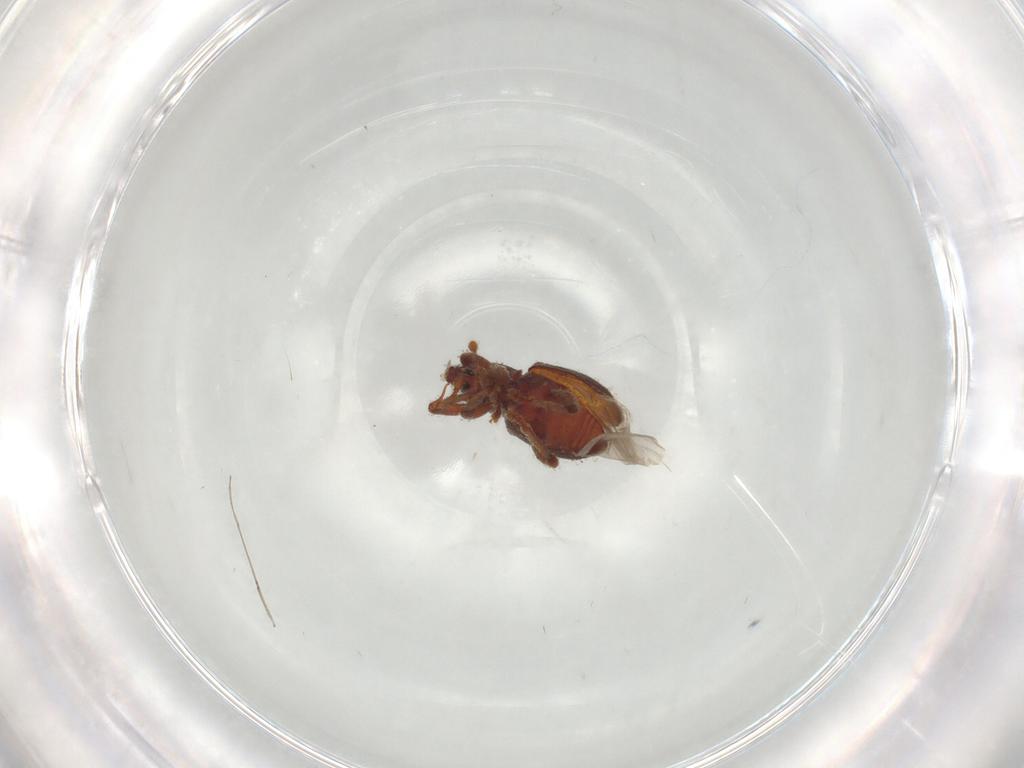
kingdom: Animalia
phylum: Arthropoda
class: Insecta
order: Coleoptera
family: Curculionidae
